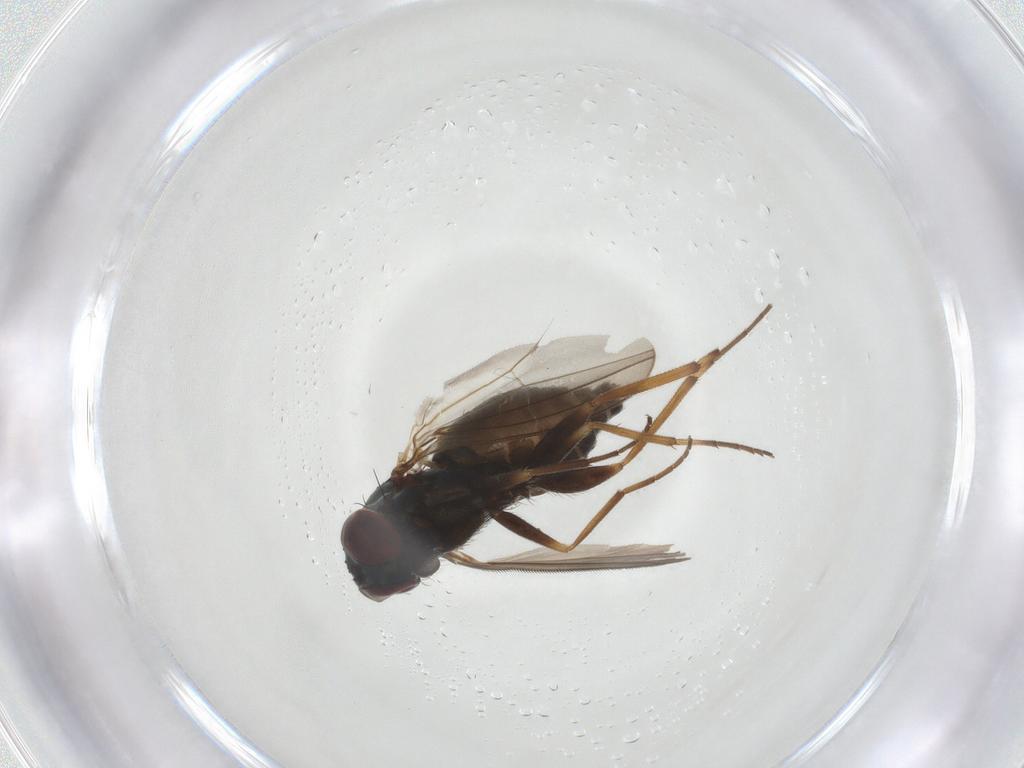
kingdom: Animalia
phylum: Arthropoda
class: Insecta
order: Diptera
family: Dolichopodidae
